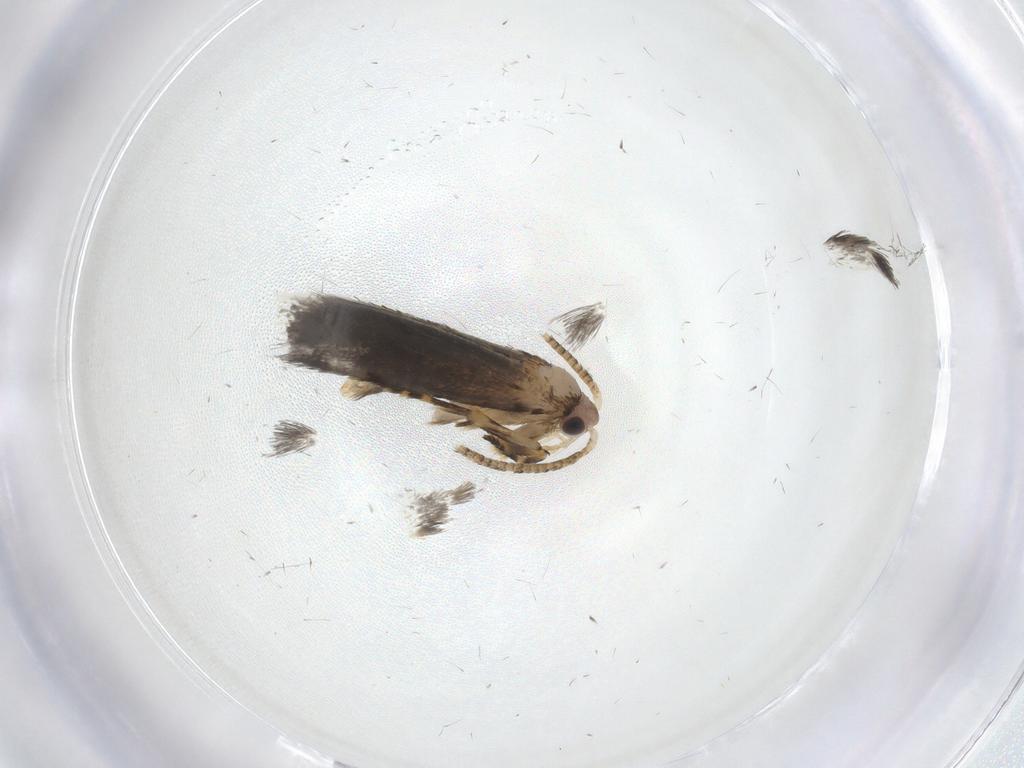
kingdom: Animalia
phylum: Arthropoda
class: Insecta
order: Lepidoptera
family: Tineidae
